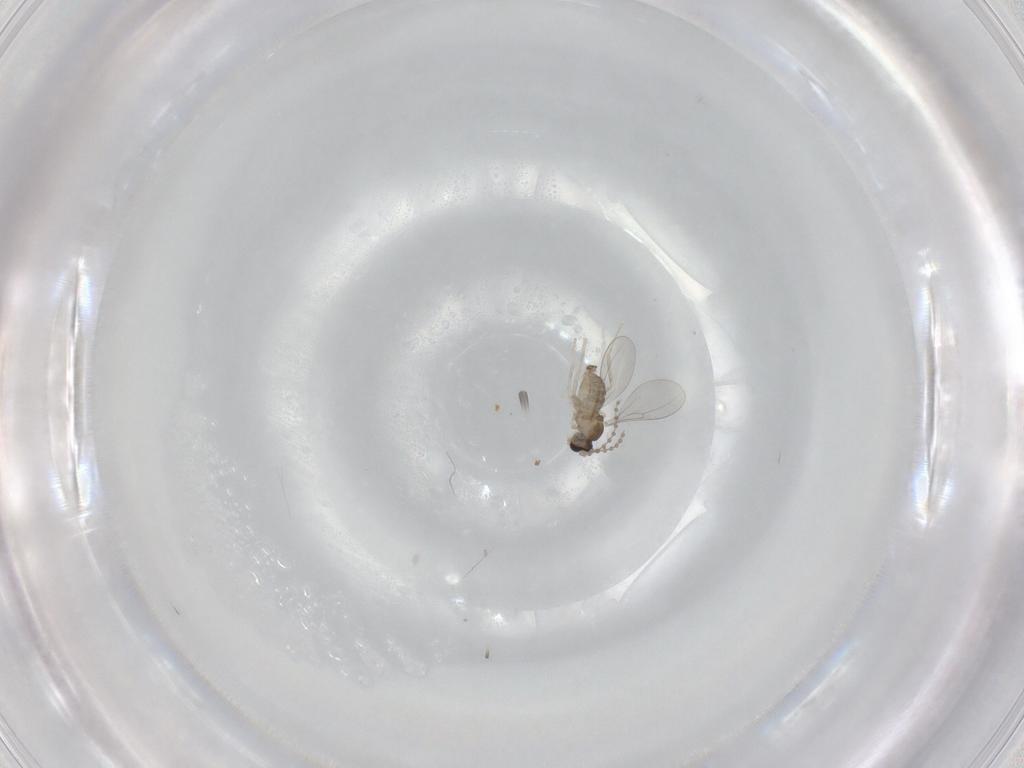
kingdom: Animalia
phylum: Arthropoda
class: Insecta
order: Diptera
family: Cecidomyiidae
